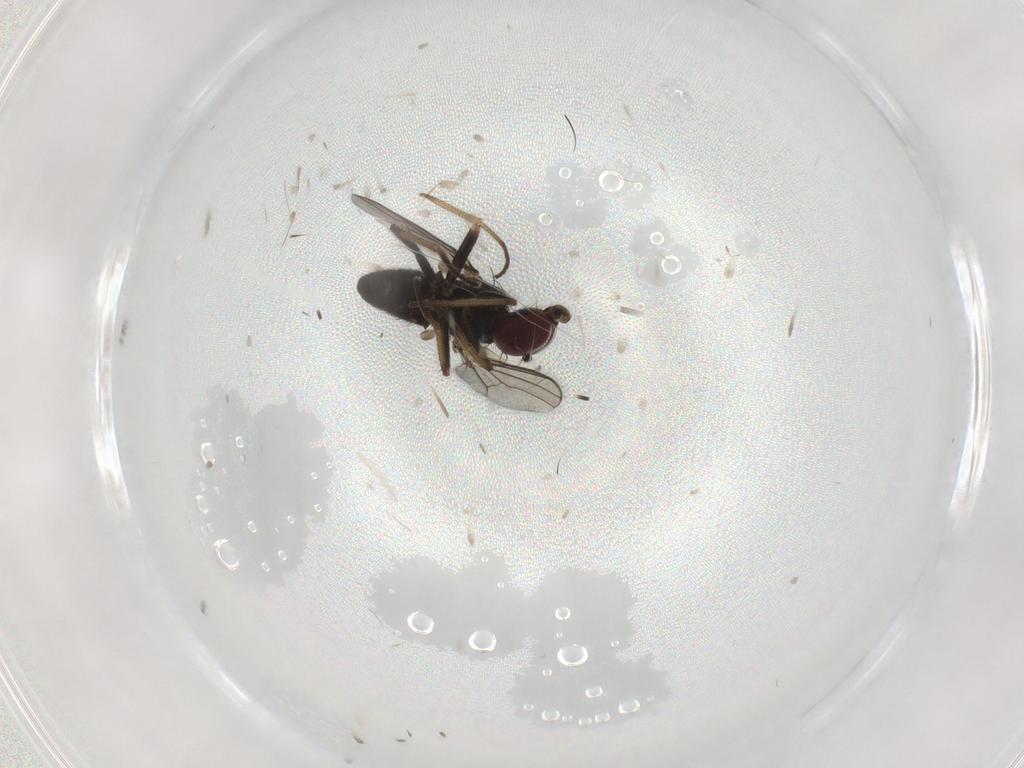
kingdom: Animalia
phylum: Arthropoda
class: Insecta
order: Diptera
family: Dolichopodidae
